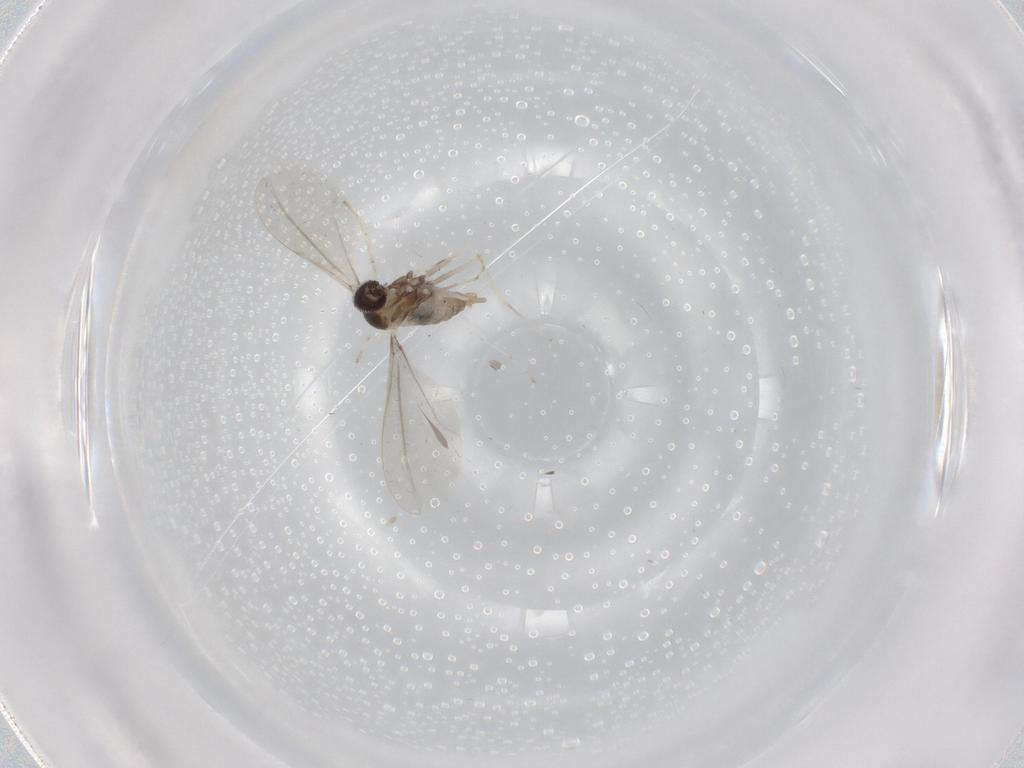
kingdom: Animalia
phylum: Arthropoda
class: Insecta
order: Diptera
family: Cecidomyiidae
